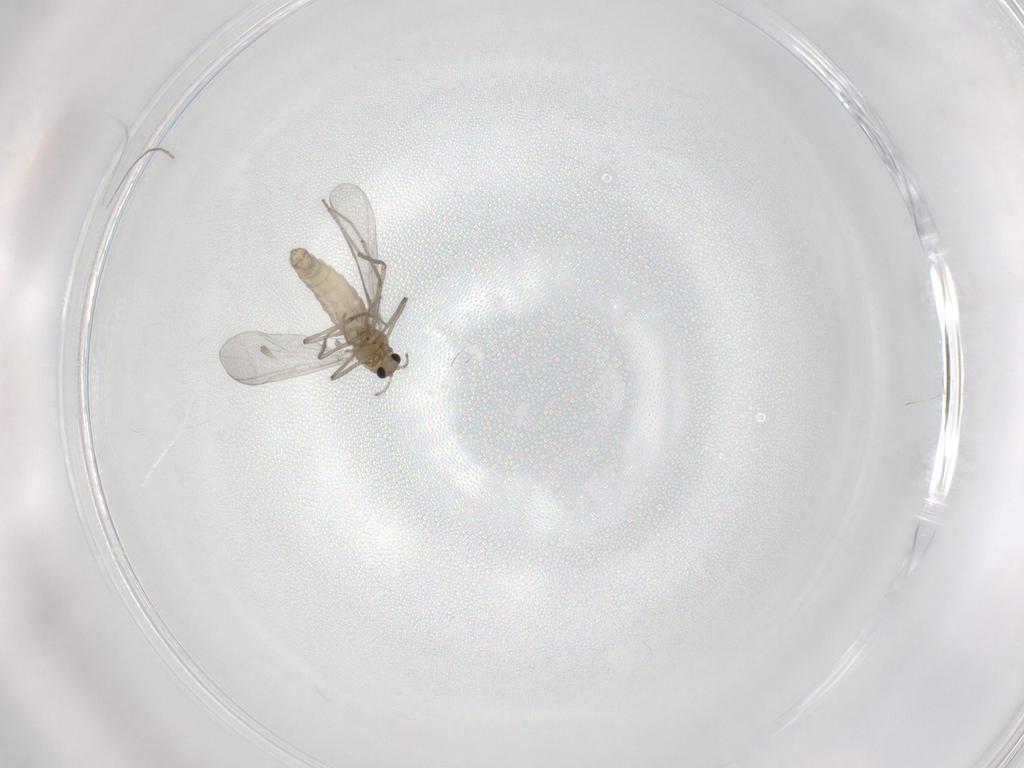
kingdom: Animalia
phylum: Arthropoda
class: Insecta
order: Diptera
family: Chironomidae
